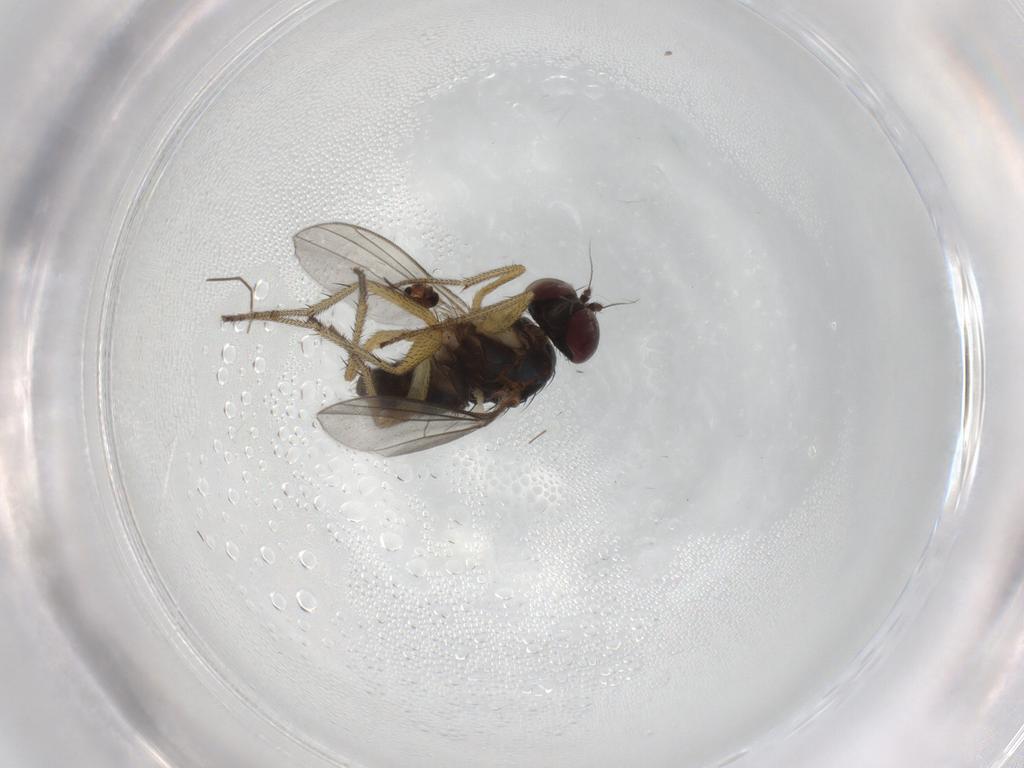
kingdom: Animalia
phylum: Arthropoda
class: Insecta
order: Diptera
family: Chironomidae
